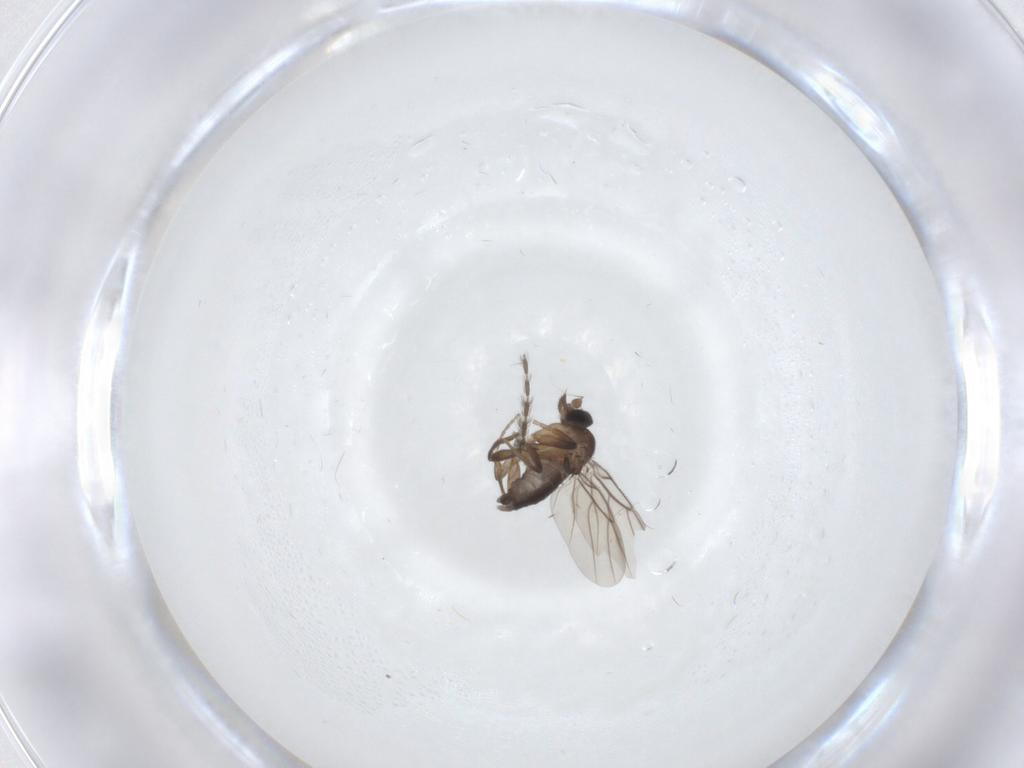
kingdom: Animalia
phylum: Arthropoda
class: Insecta
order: Diptera
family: Psychodidae
